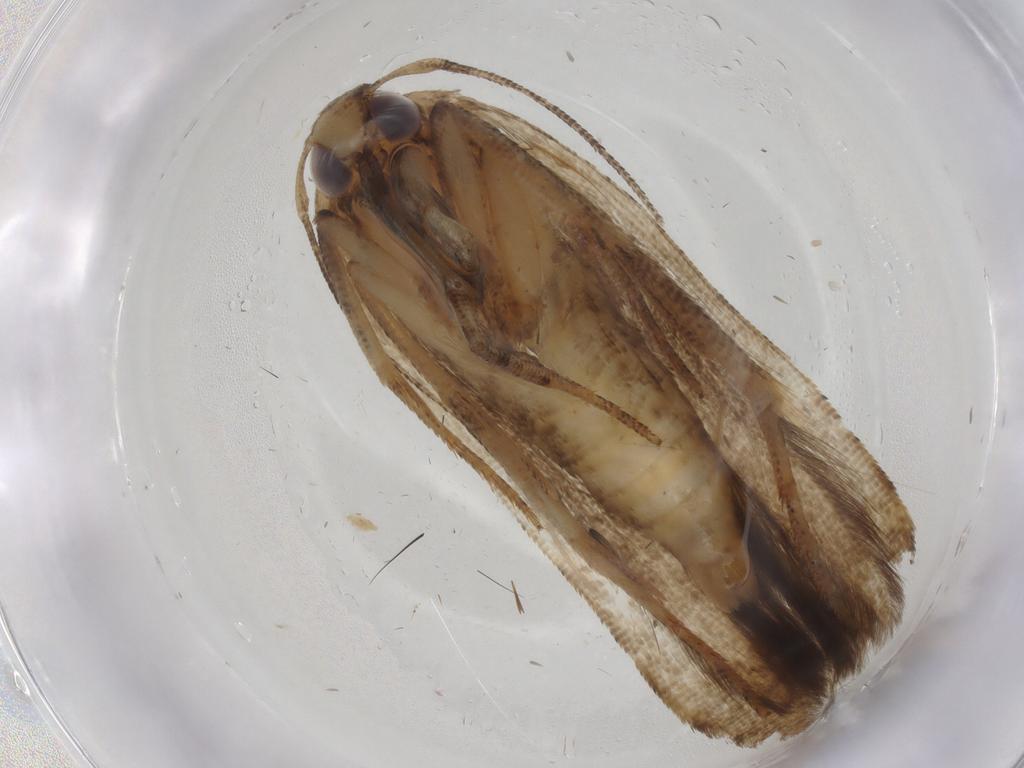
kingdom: Animalia
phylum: Arthropoda
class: Insecta
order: Lepidoptera
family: Cosmopterigidae
